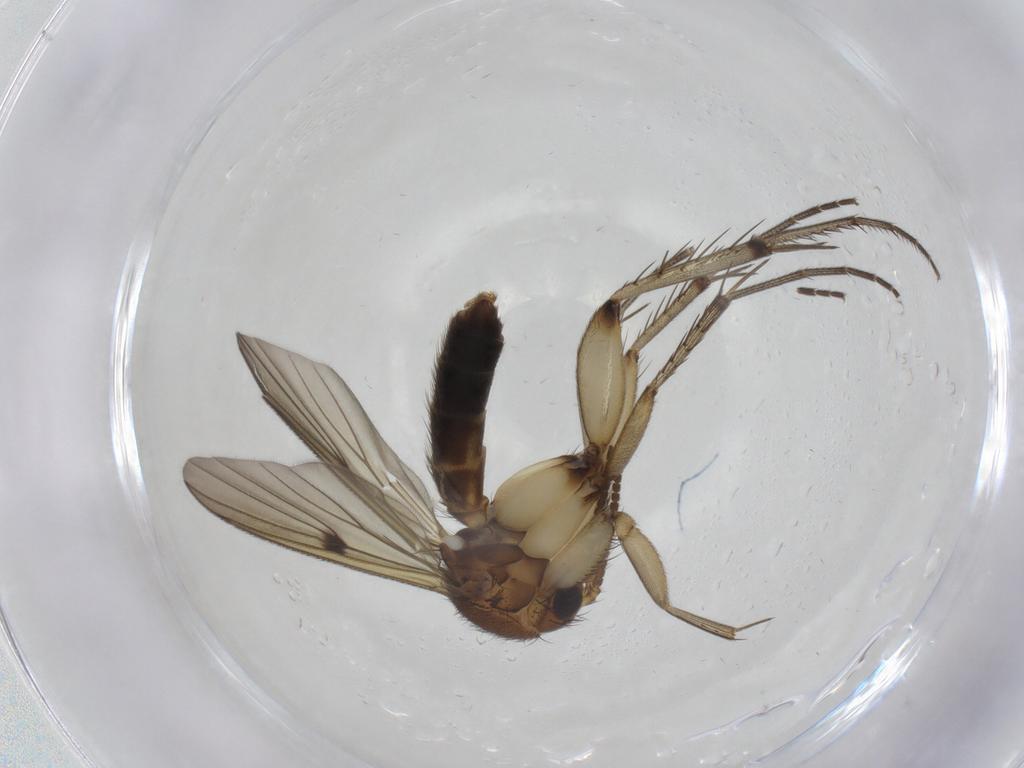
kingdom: Animalia
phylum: Arthropoda
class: Insecta
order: Diptera
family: Mycetophilidae
